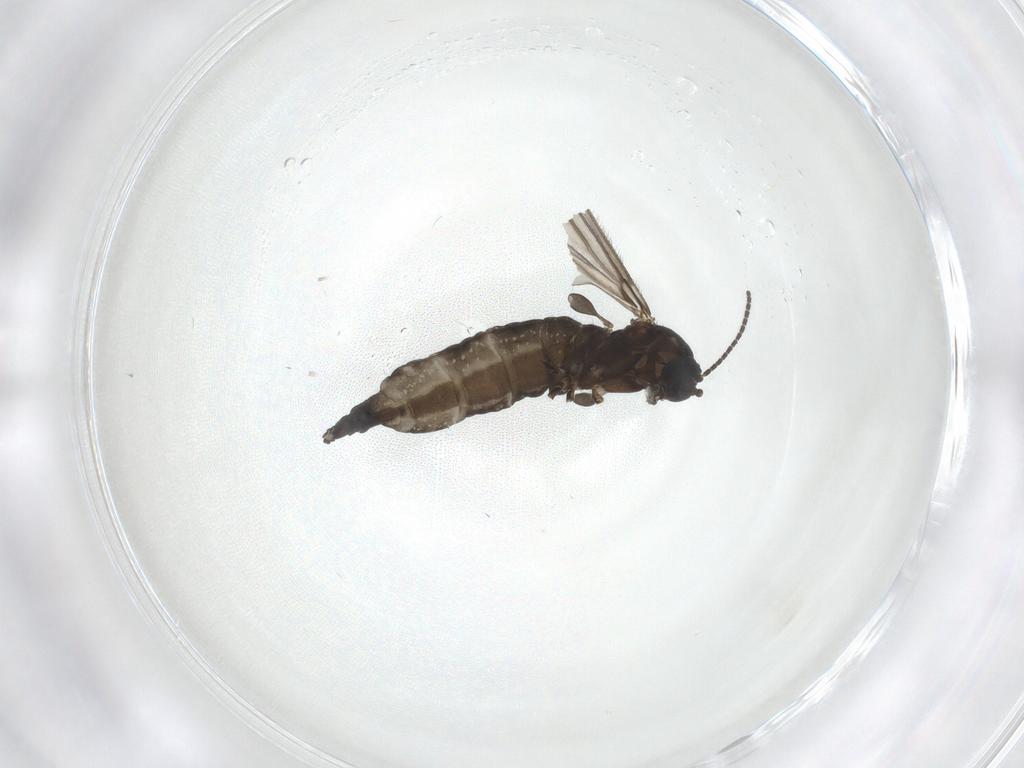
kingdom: Animalia
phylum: Arthropoda
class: Insecta
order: Diptera
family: Sciaridae
